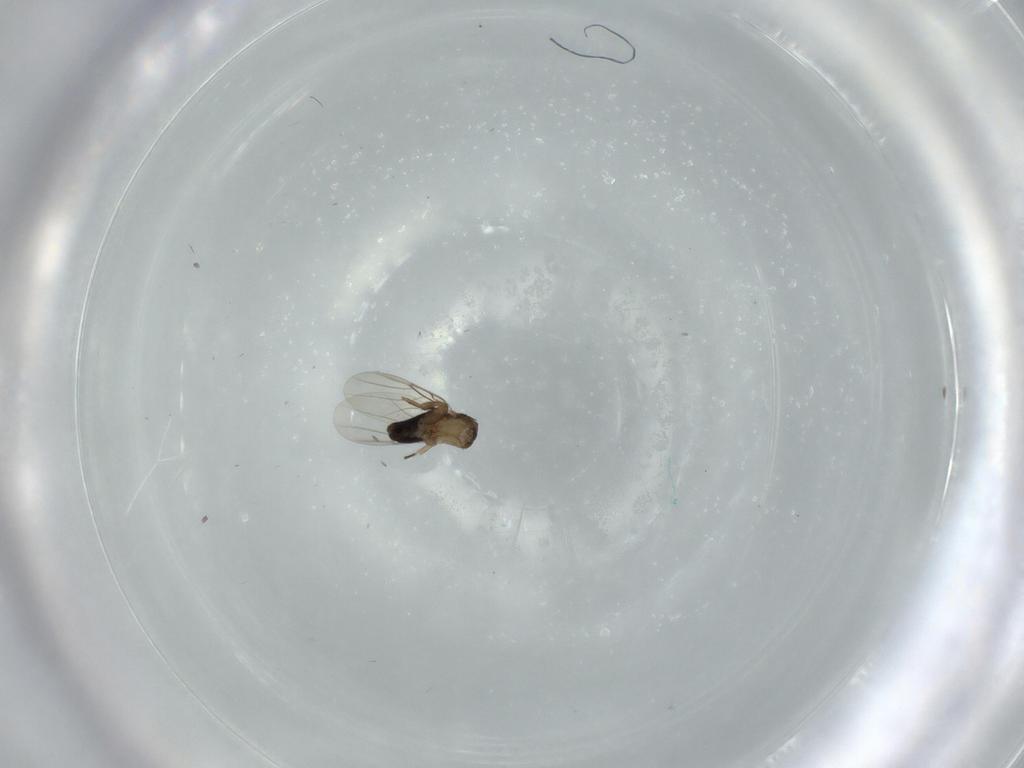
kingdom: Animalia
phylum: Arthropoda
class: Insecta
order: Diptera
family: Phoridae
